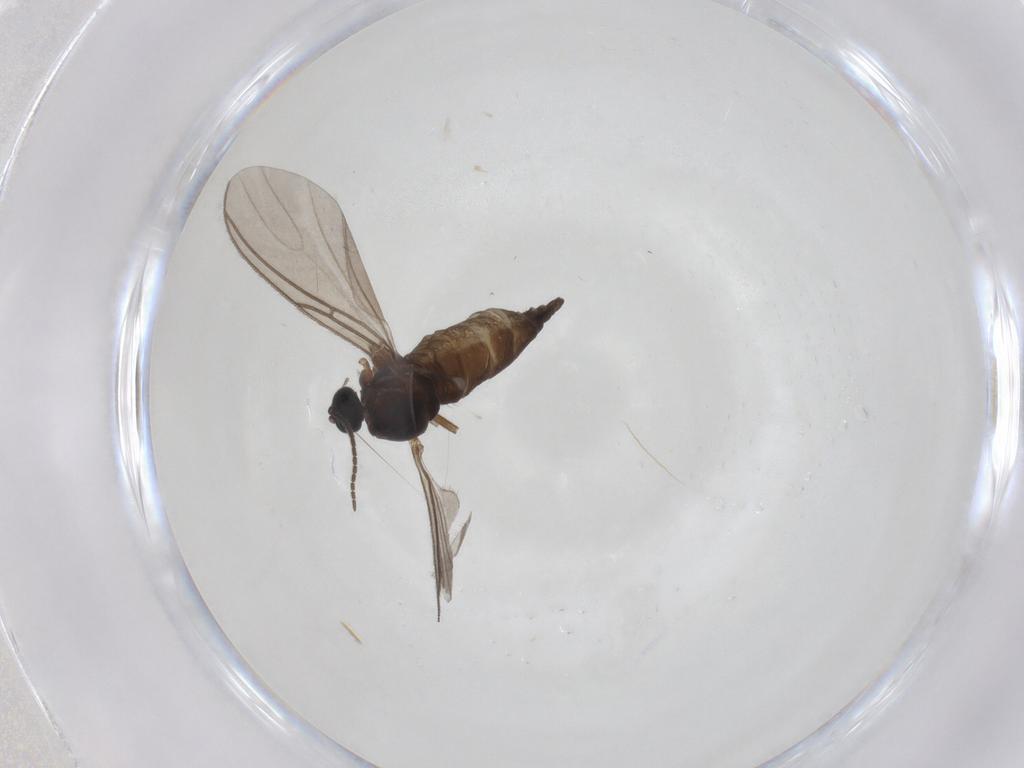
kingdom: Animalia
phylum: Arthropoda
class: Insecta
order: Diptera
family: Sciaridae
